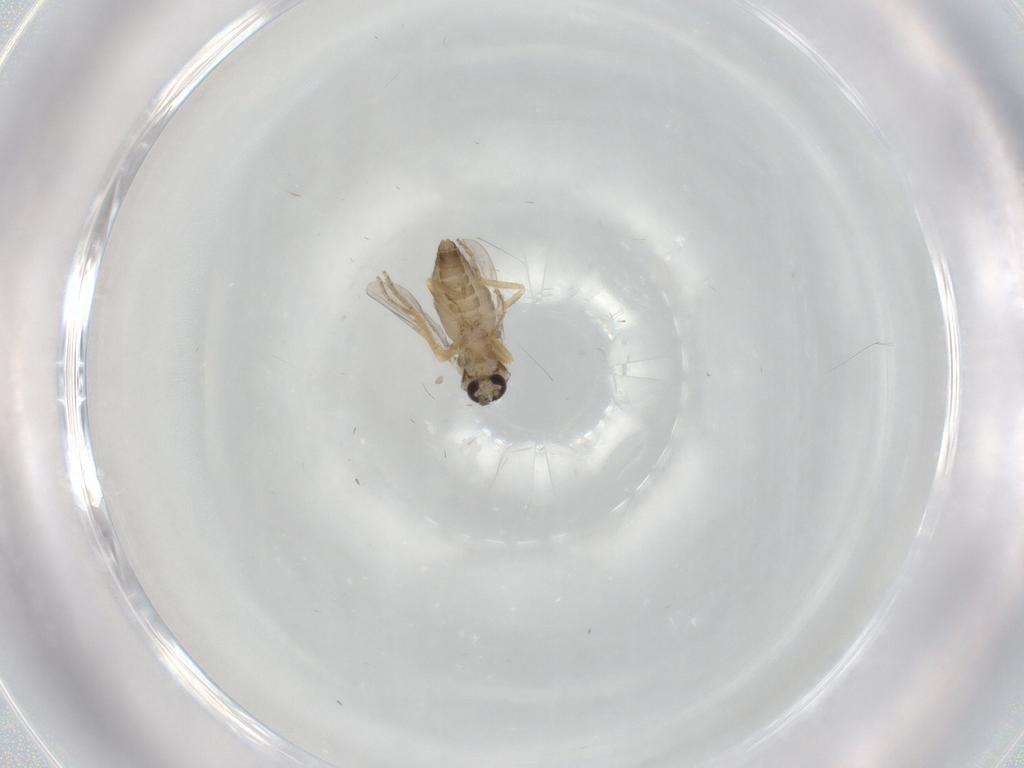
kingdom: Animalia
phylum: Arthropoda
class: Insecta
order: Diptera
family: Ceratopogonidae
